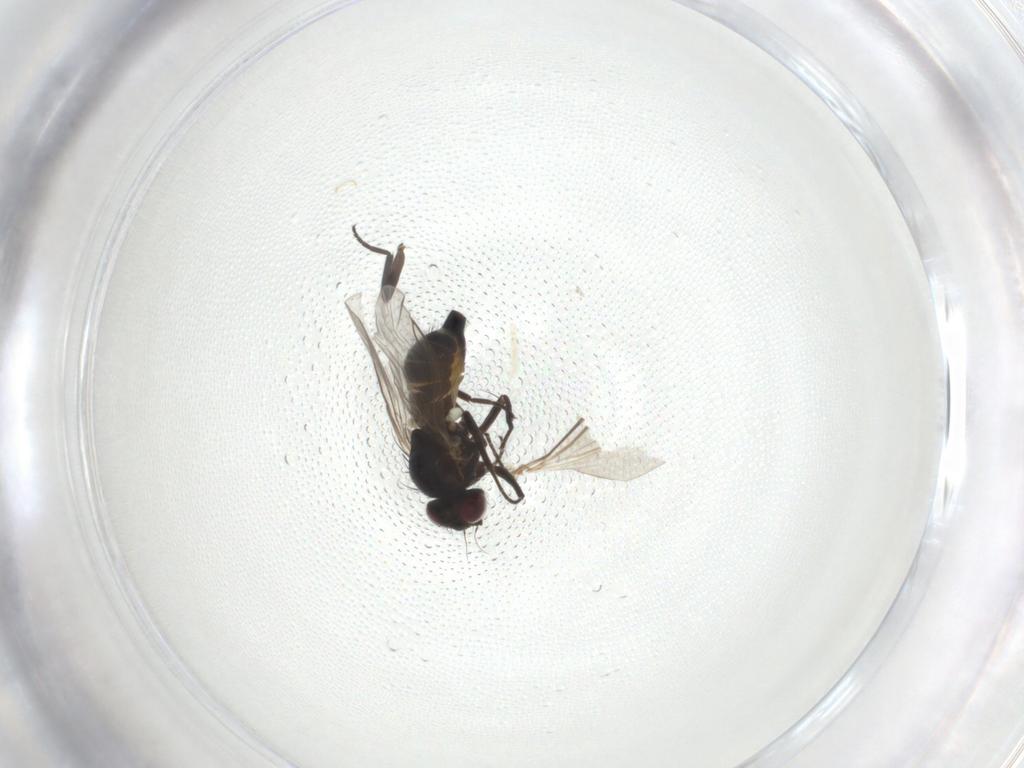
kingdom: Animalia
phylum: Arthropoda
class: Insecta
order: Diptera
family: Sciaridae
